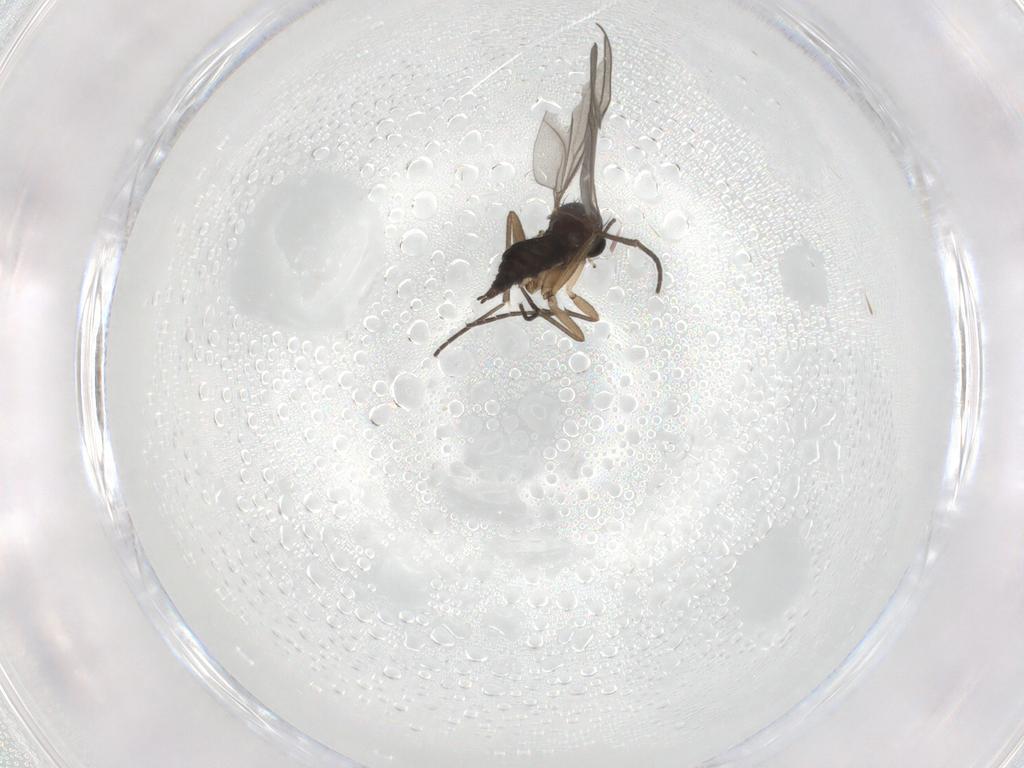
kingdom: Animalia
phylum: Arthropoda
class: Insecta
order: Diptera
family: Sciaridae
